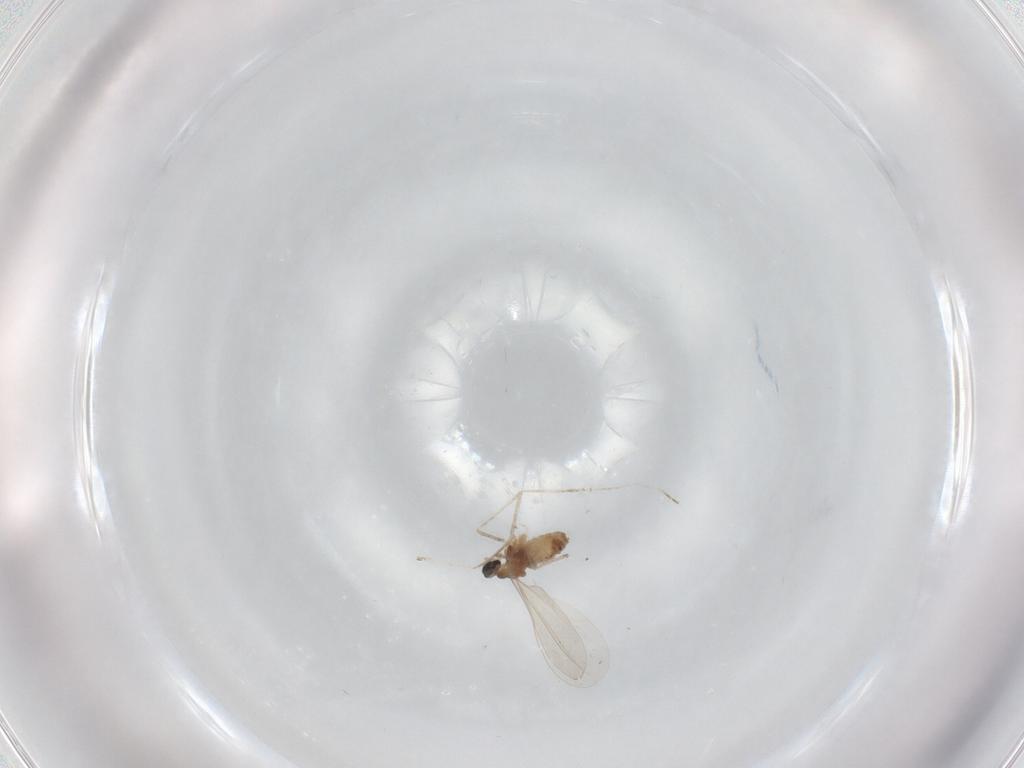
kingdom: Animalia
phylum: Arthropoda
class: Insecta
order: Diptera
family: Cecidomyiidae
